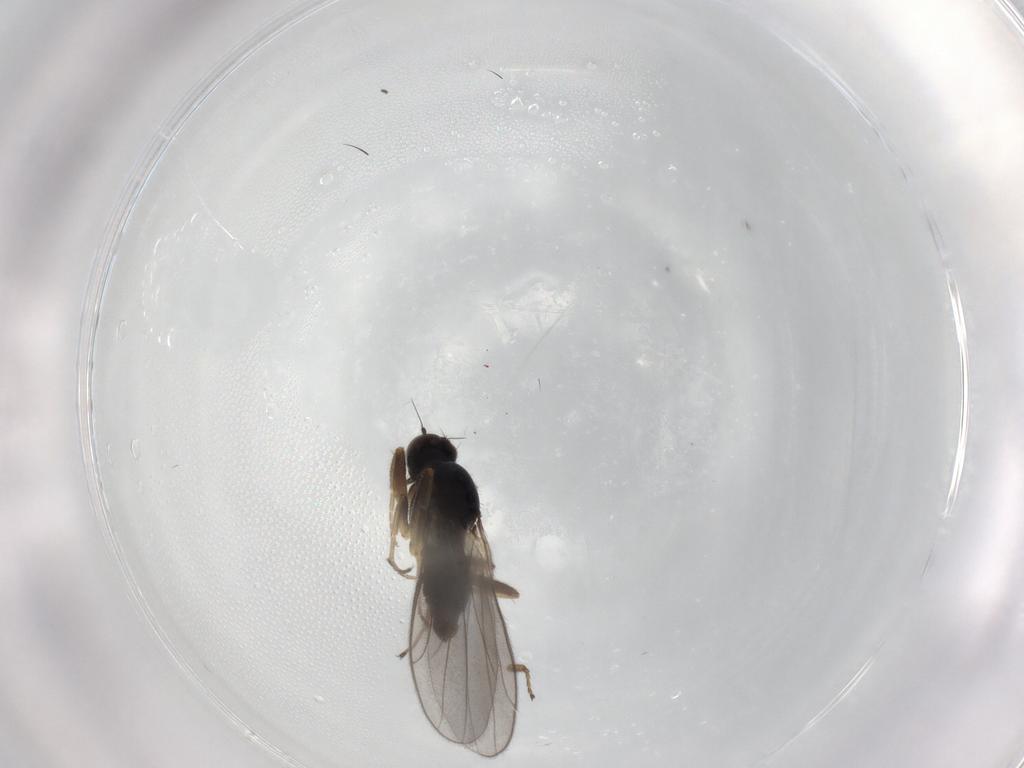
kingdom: Animalia
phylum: Arthropoda
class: Insecta
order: Diptera
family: Hybotidae
